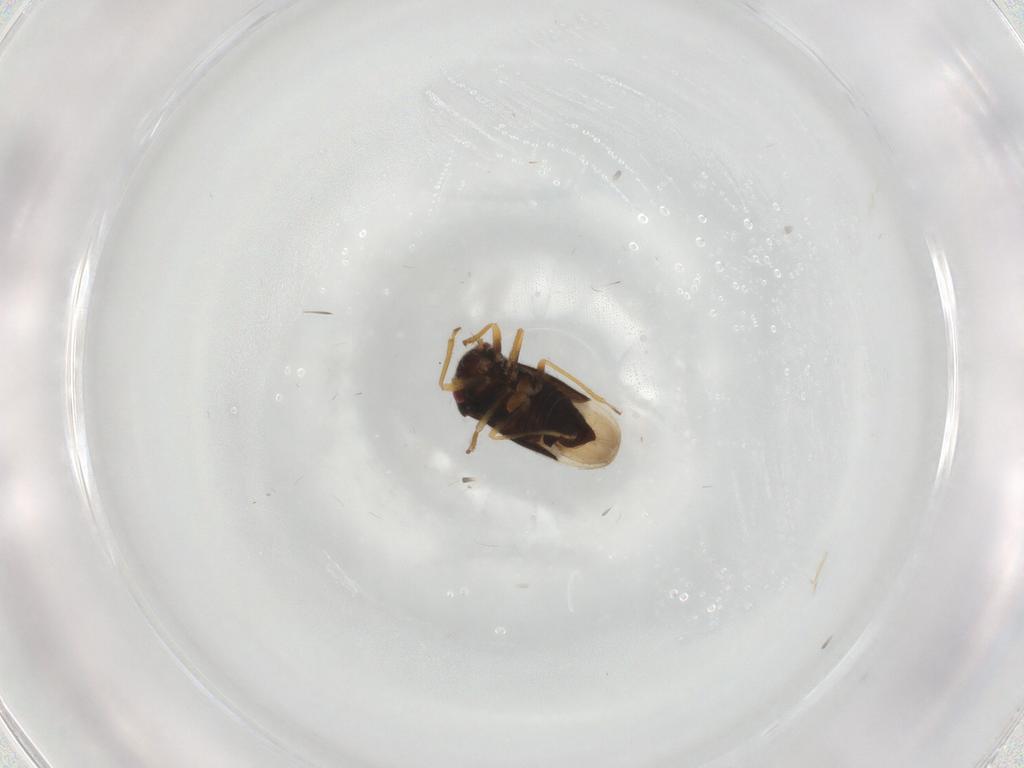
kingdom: Animalia
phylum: Arthropoda
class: Insecta
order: Hemiptera
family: Schizopteridae
